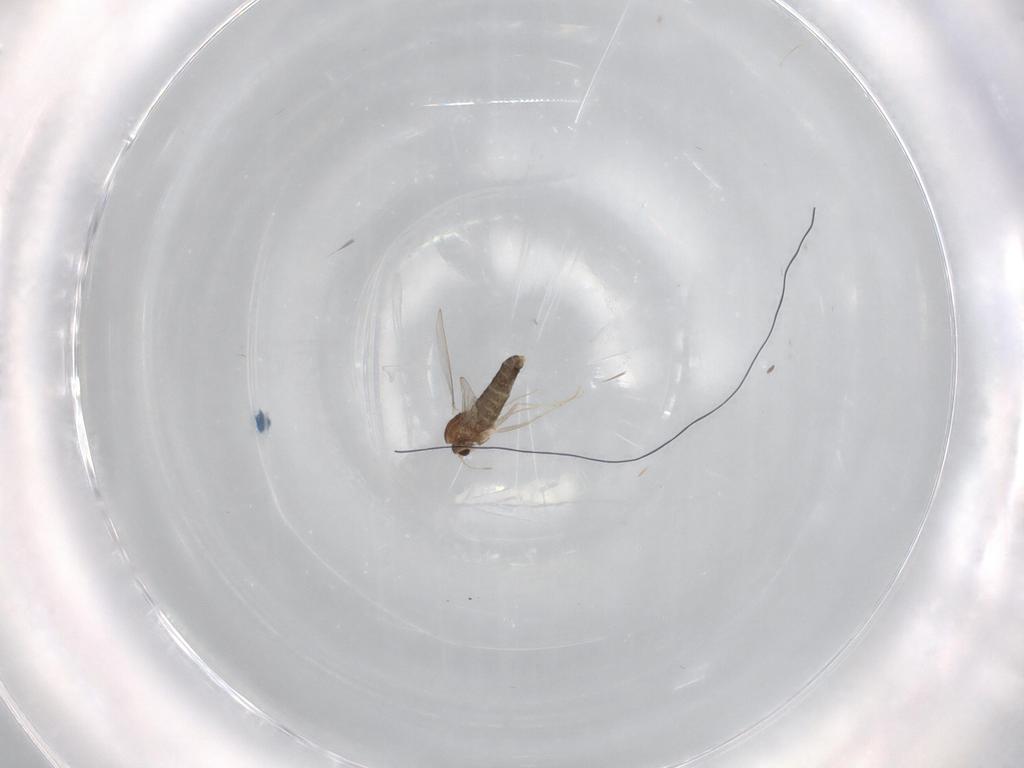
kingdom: Animalia
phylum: Arthropoda
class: Insecta
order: Diptera
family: Chironomidae
